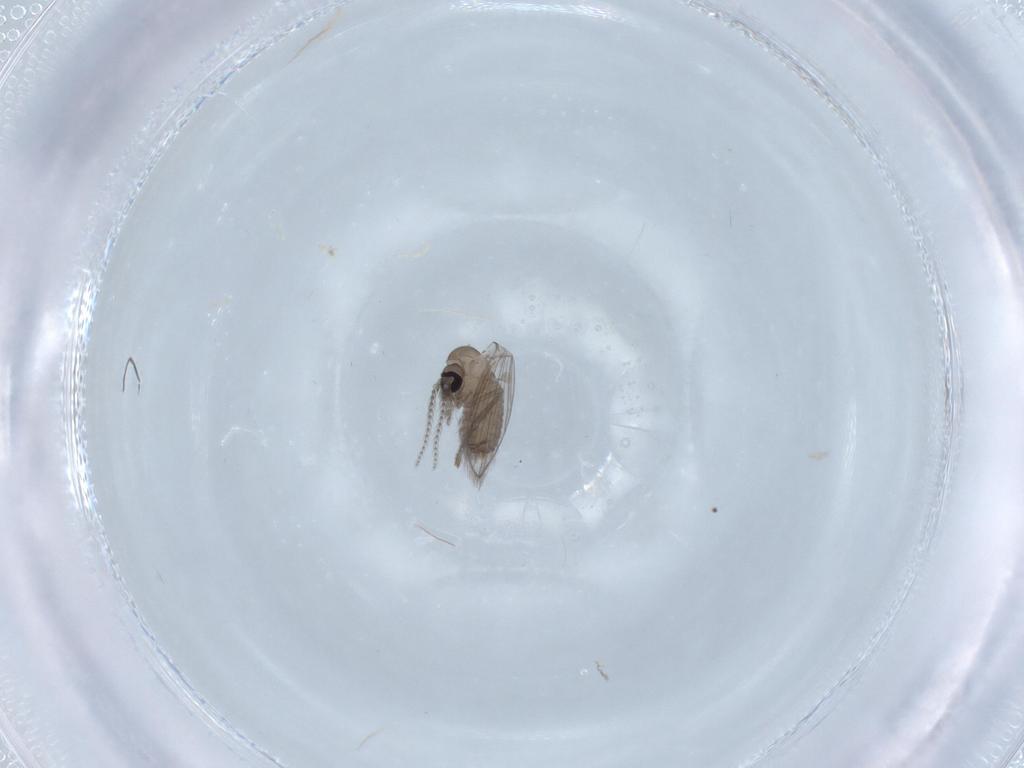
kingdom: Animalia
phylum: Arthropoda
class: Insecta
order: Diptera
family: Psychodidae
